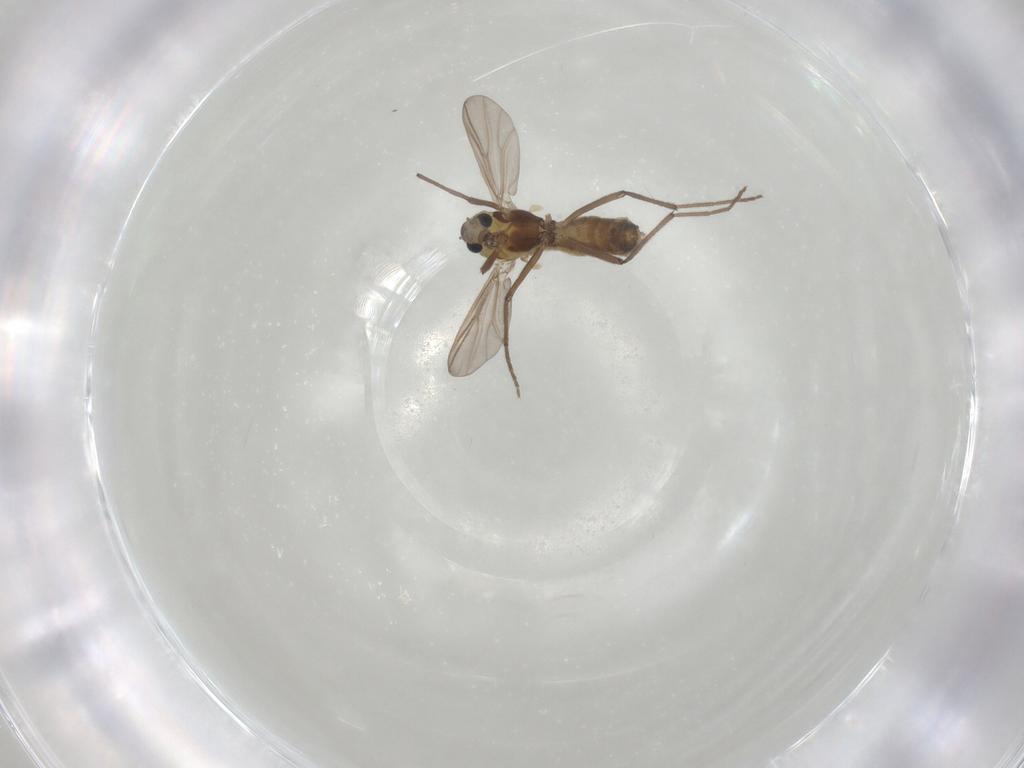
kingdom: Animalia
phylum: Arthropoda
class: Insecta
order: Diptera
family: Chironomidae
